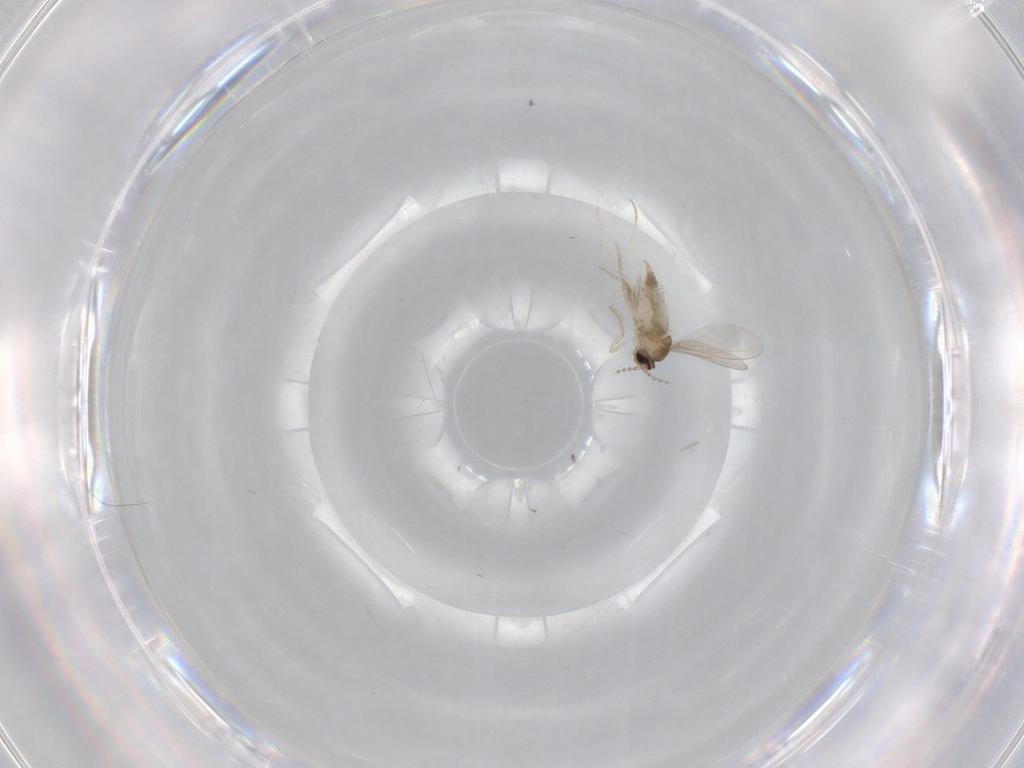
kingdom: Animalia
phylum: Arthropoda
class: Insecta
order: Diptera
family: Cecidomyiidae
